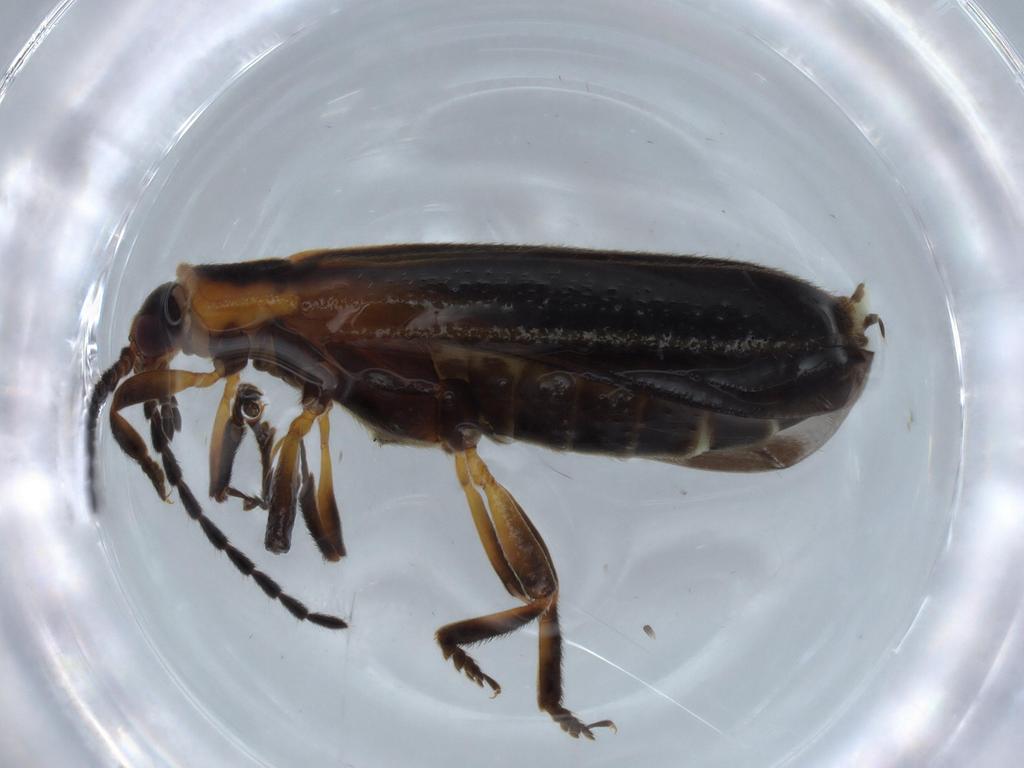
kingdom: Animalia
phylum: Arthropoda
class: Insecta
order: Coleoptera
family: Lycidae
